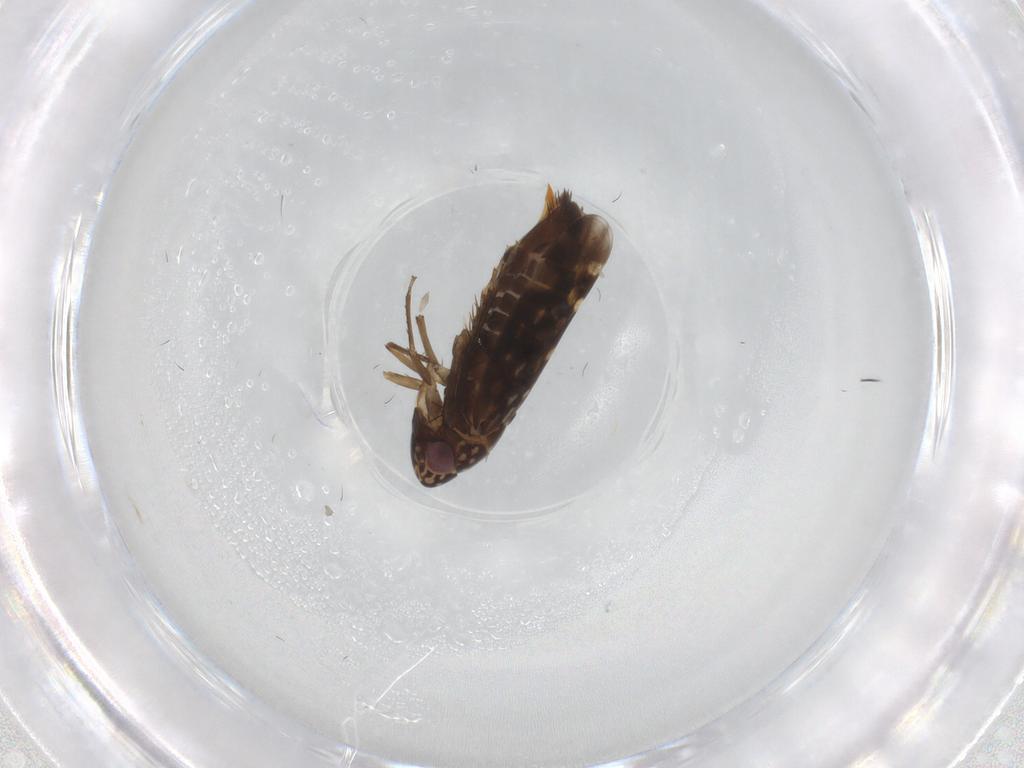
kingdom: Animalia
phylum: Arthropoda
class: Insecta
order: Hemiptera
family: Cicadellidae
